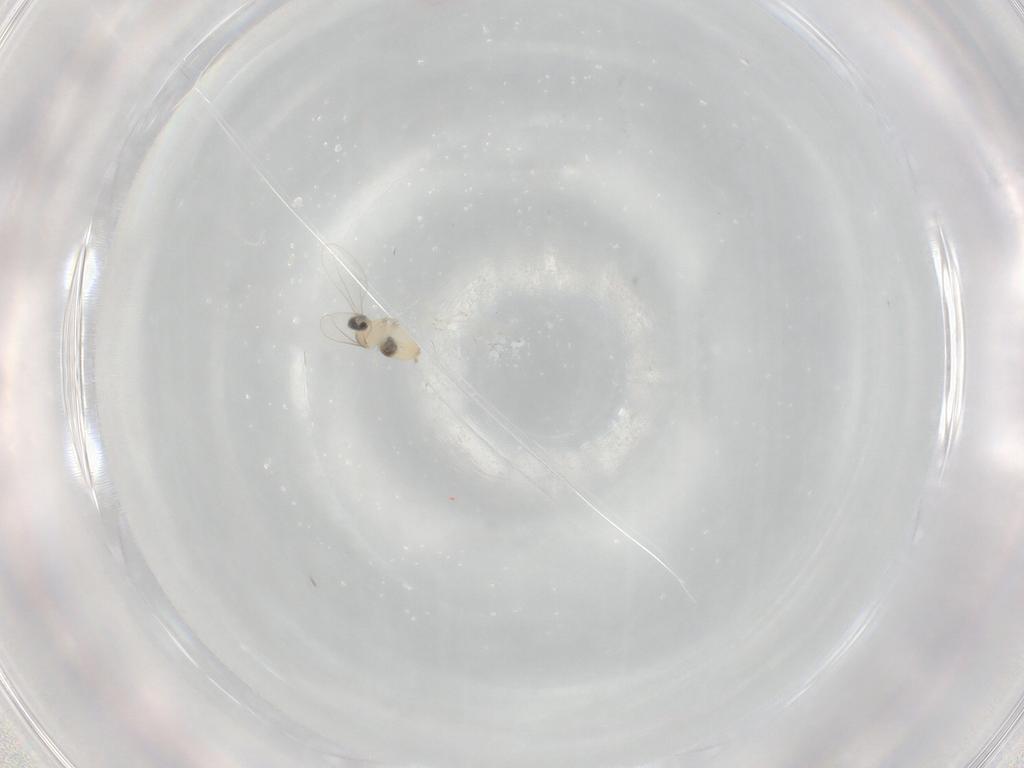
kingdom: Animalia
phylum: Arthropoda
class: Insecta
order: Diptera
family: Cecidomyiidae
